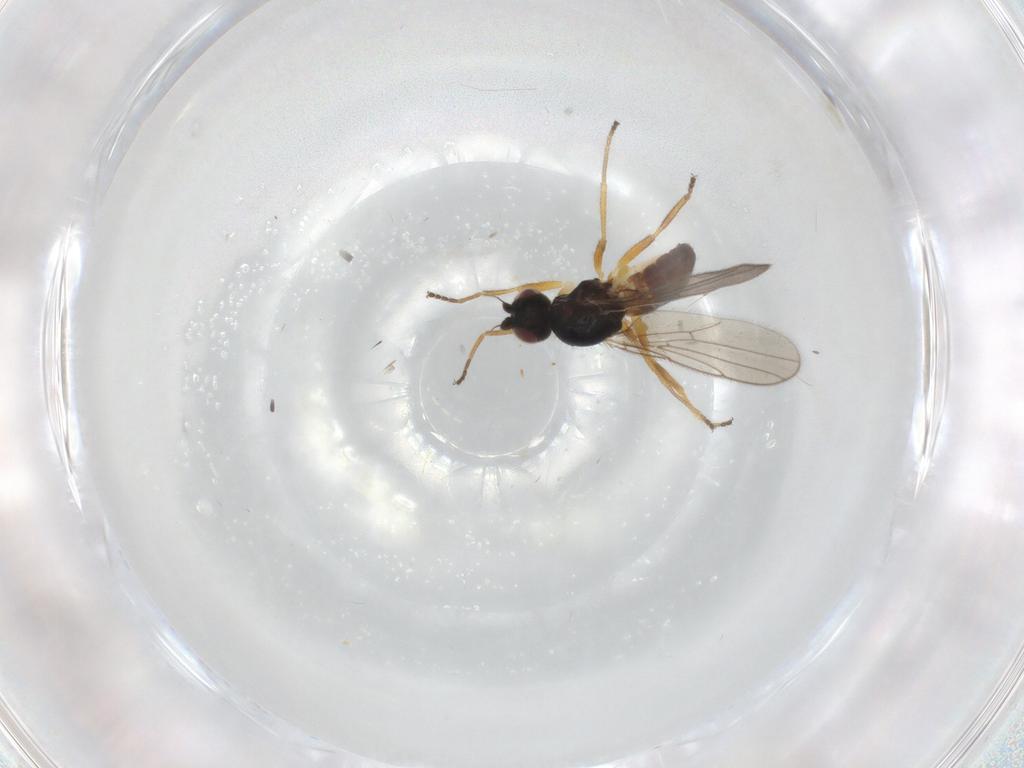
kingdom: Animalia
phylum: Arthropoda
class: Insecta
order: Diptera
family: Chloropidae
